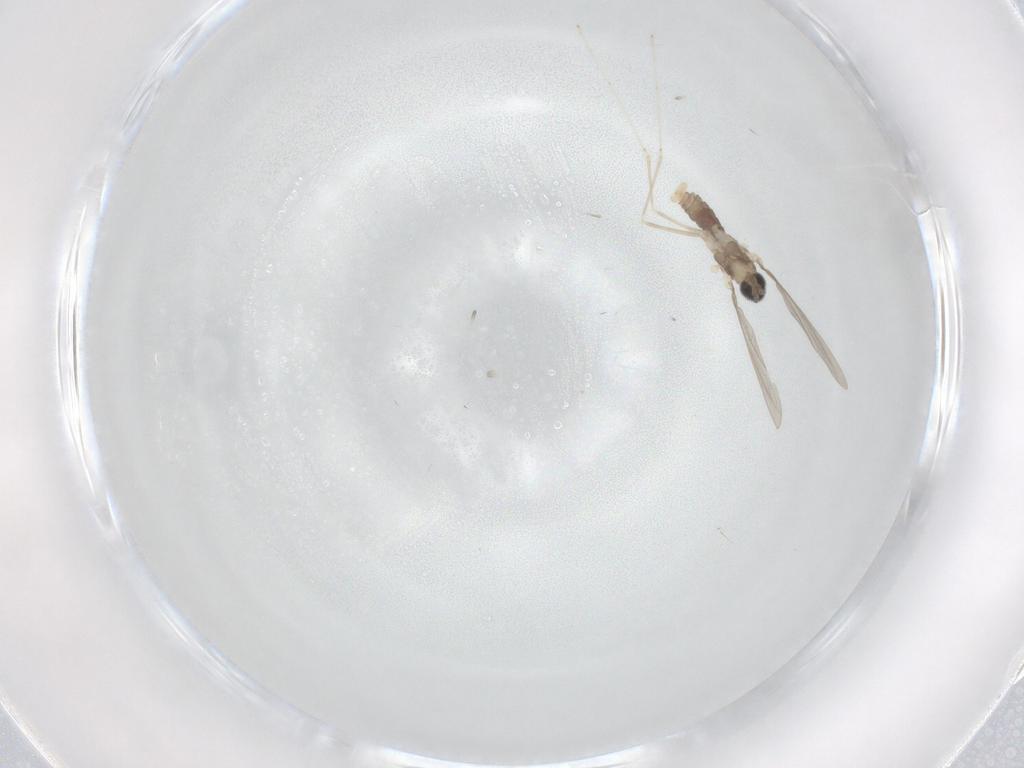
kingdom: Animalia
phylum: Arthropoda
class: Insecta
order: Diptera
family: Cecidomyiidae
